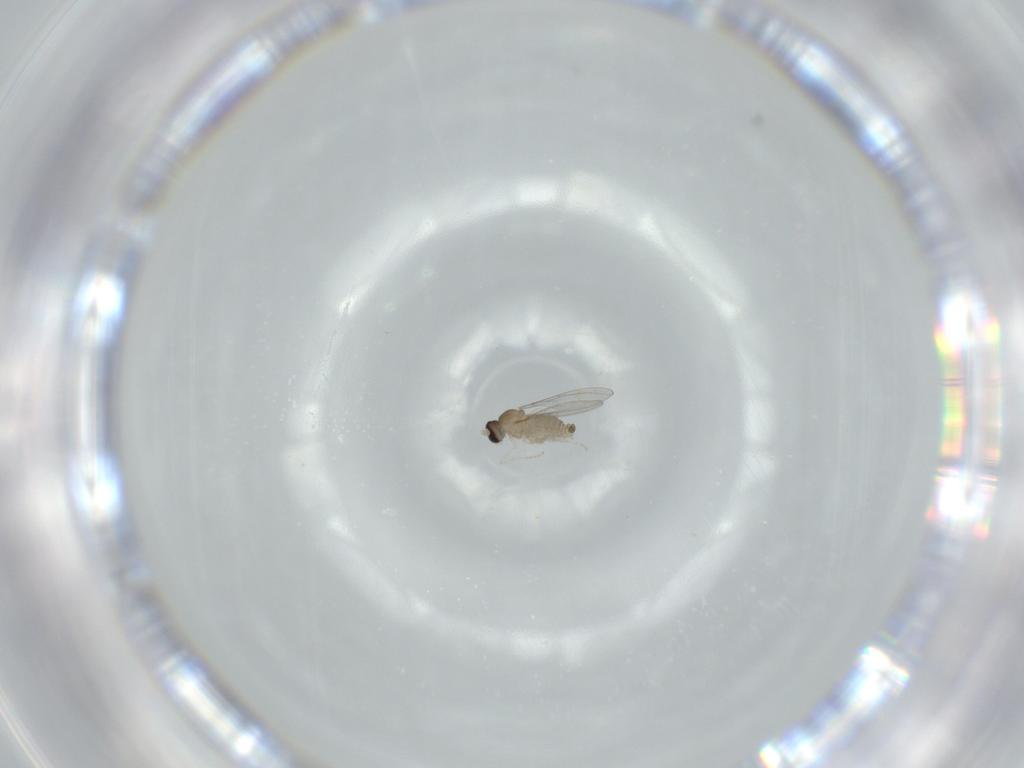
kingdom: Animalia
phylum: Arthropoda
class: Insecta
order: Diptera
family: Cecidomyiidae
